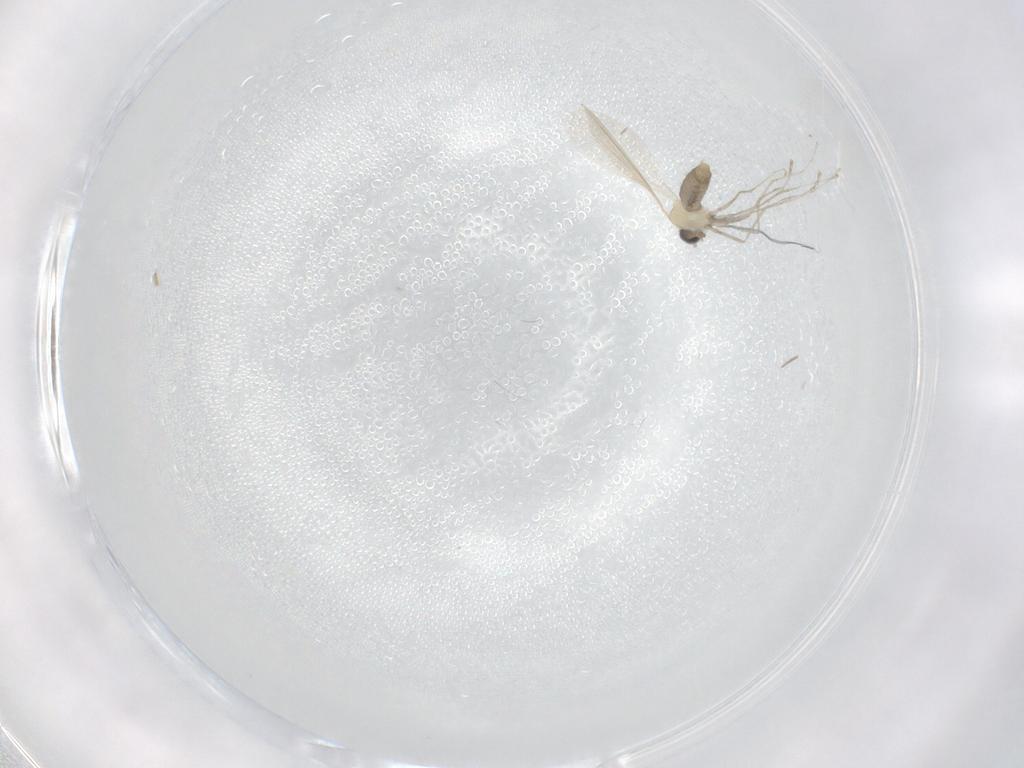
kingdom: Animalia
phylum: Arthropoda
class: Insecta
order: Diptera
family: Cecidomyiidae
